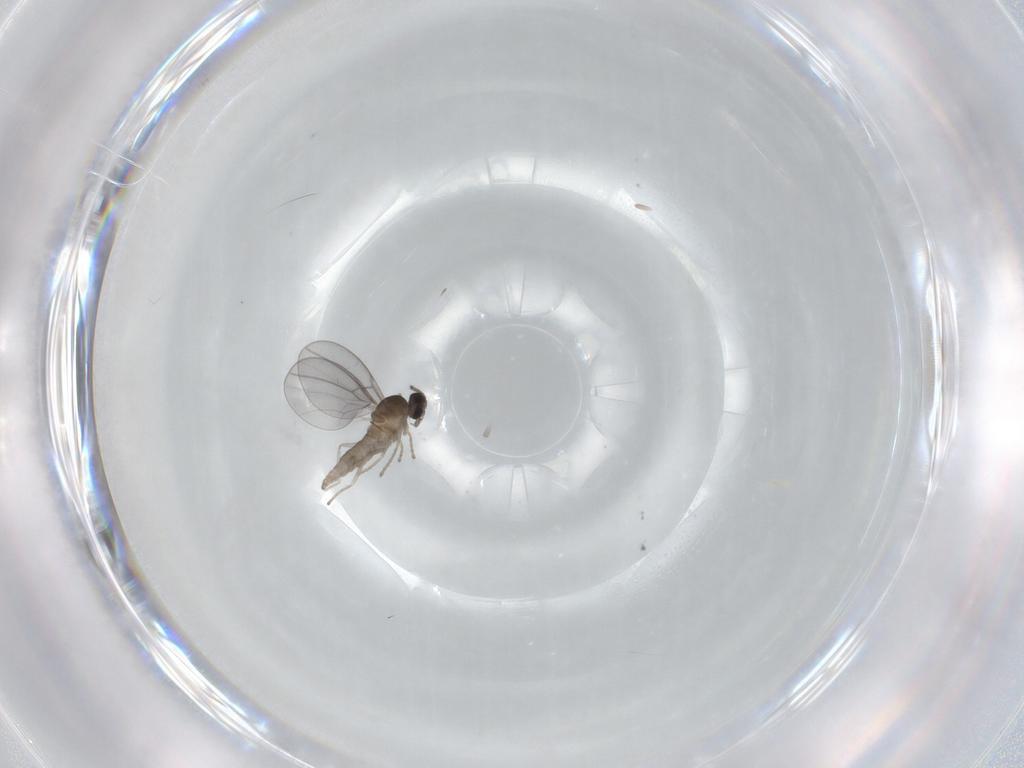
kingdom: Animalia
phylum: Arthropoda
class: Insecta
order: Diptera
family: Cecidomyiidae
